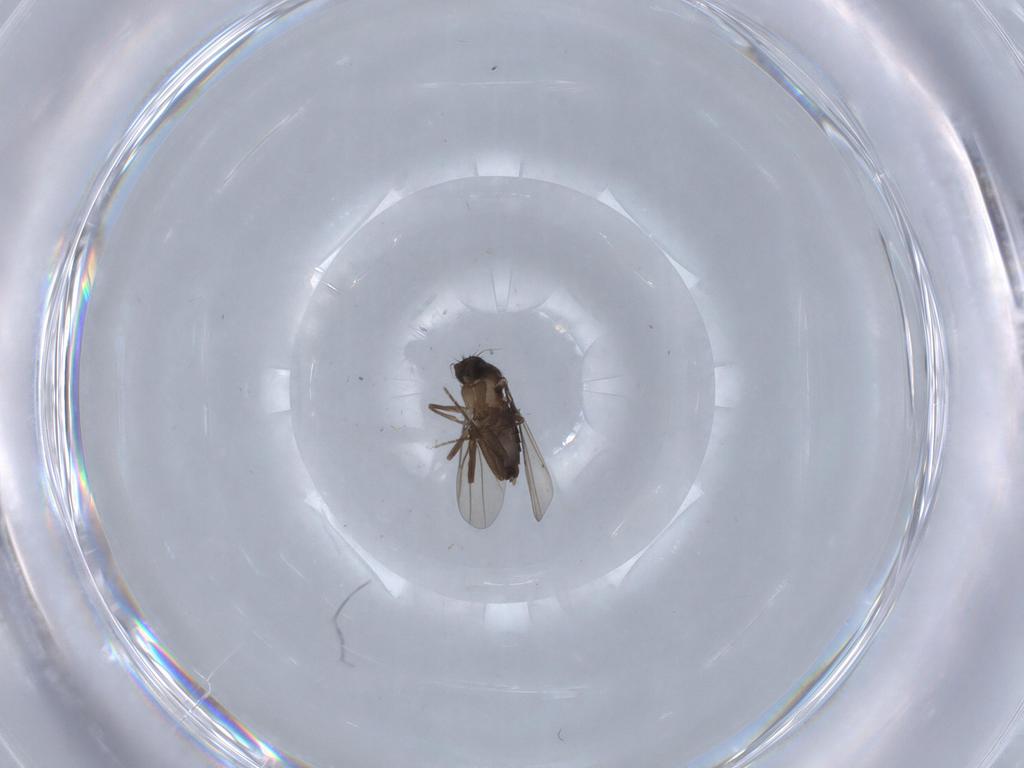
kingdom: Animalia
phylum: Arthropoda
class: Insecta
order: Diptera
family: Phoridae
